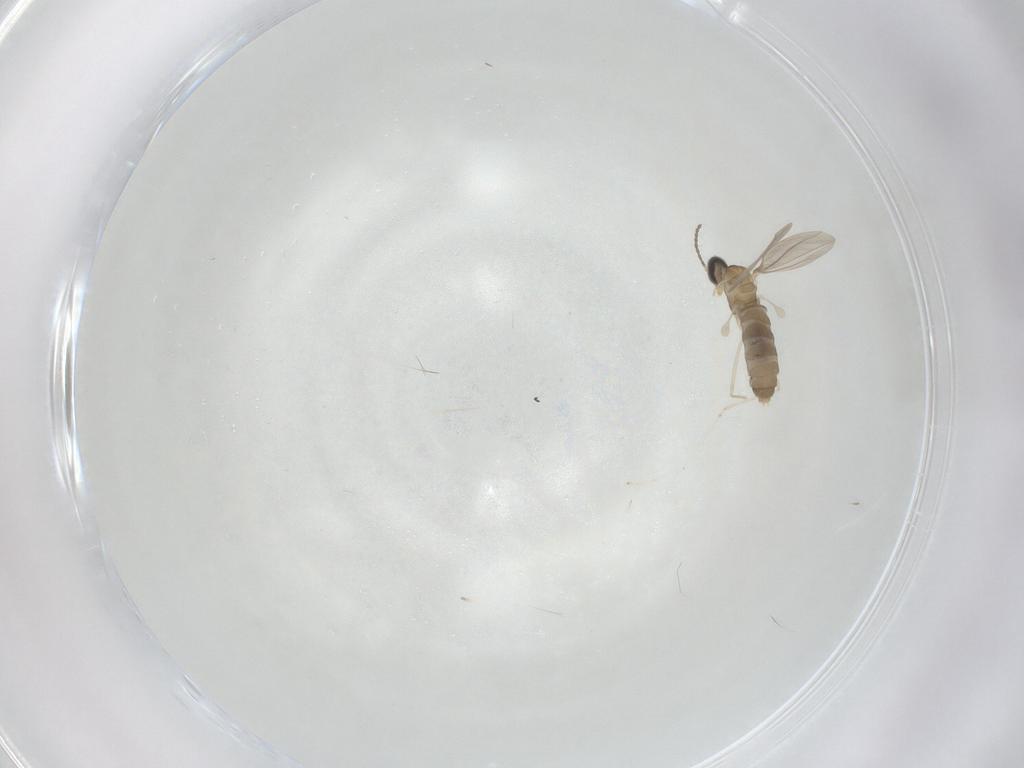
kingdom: Animalia
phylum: Arthropoda
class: Insecta
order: Diptera
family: Cecidomyiidae
